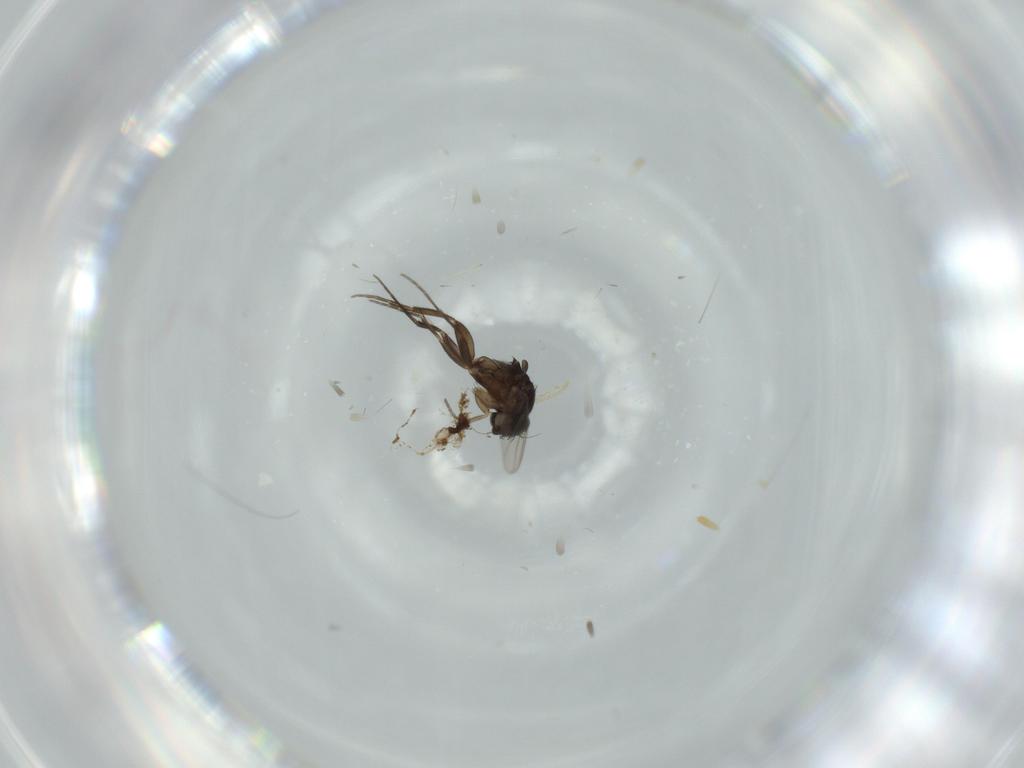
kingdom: Animalia
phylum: Arthropoda
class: Insecta
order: Diptera
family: Phoridae
